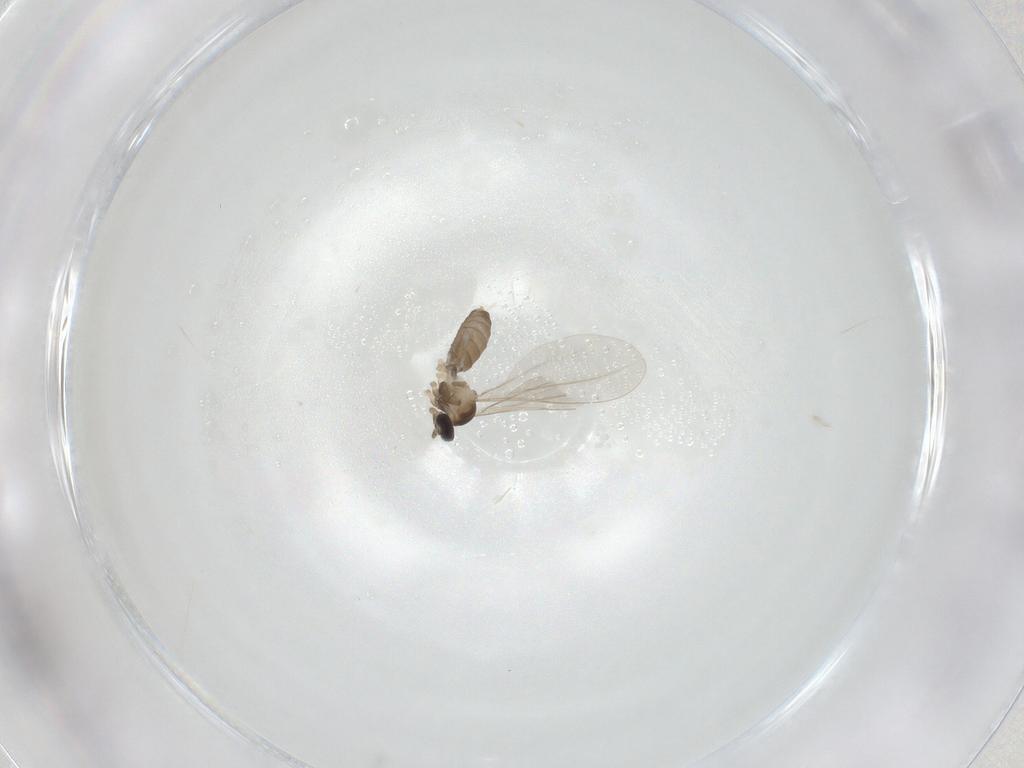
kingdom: Animalia
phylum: Arthropoda
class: Insecta
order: Diptera
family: Cecidomyiidae
